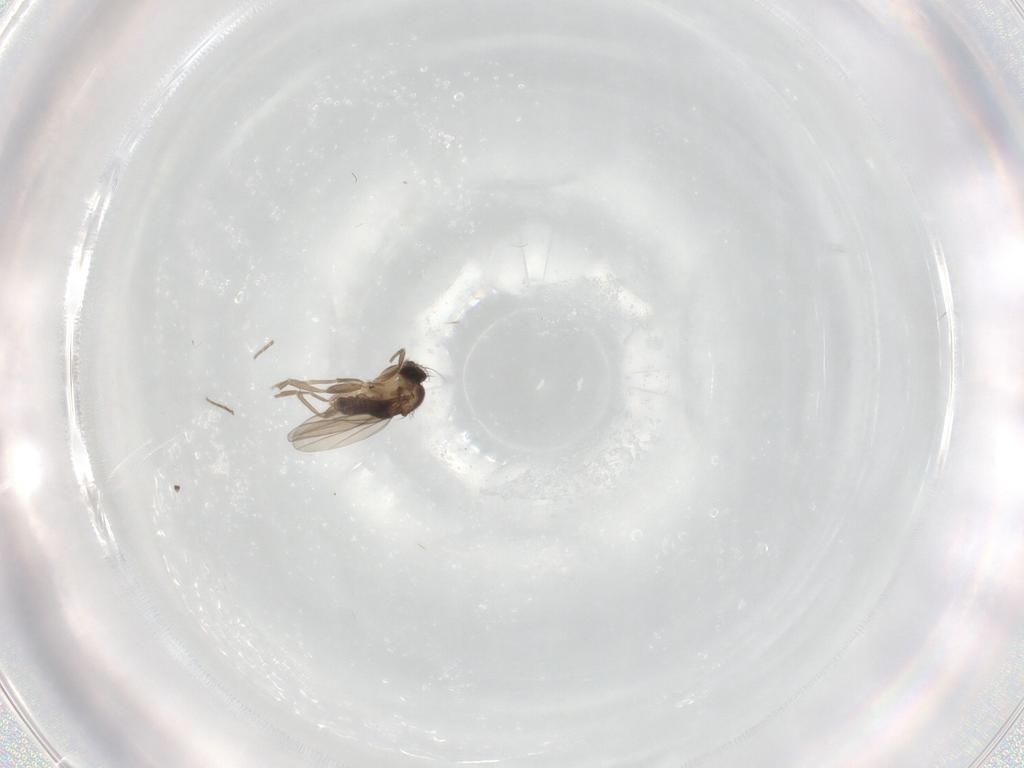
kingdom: Animalia
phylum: Arthropoda
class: Insecta
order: Diptera
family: Phoridae
